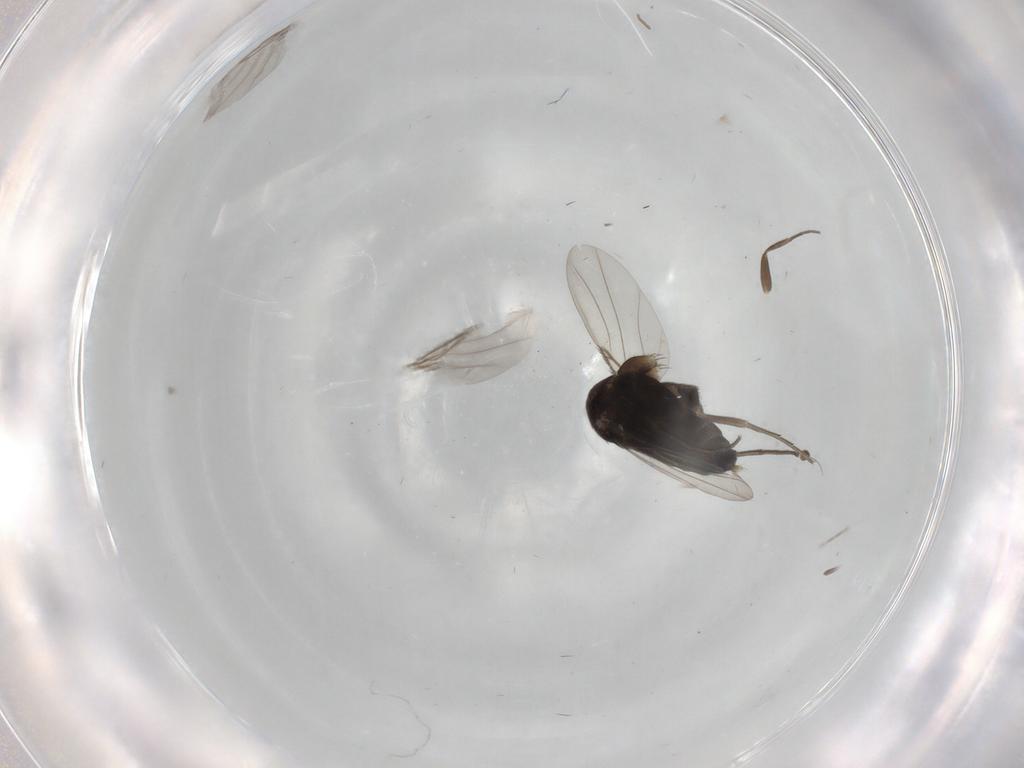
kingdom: Animalia
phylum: Arthropoda
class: Insecta
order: Diptera
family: Phoridae
